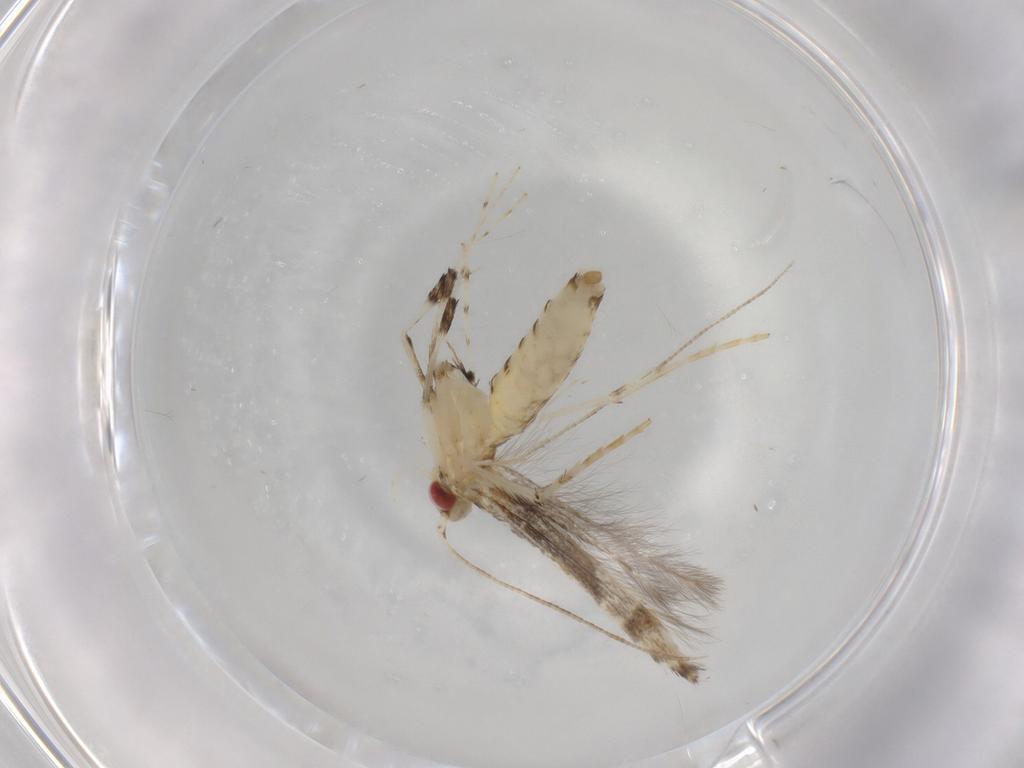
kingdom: Animalia
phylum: Arthropoda
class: Insecta
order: Lepidoptera
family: Gracillariidae
